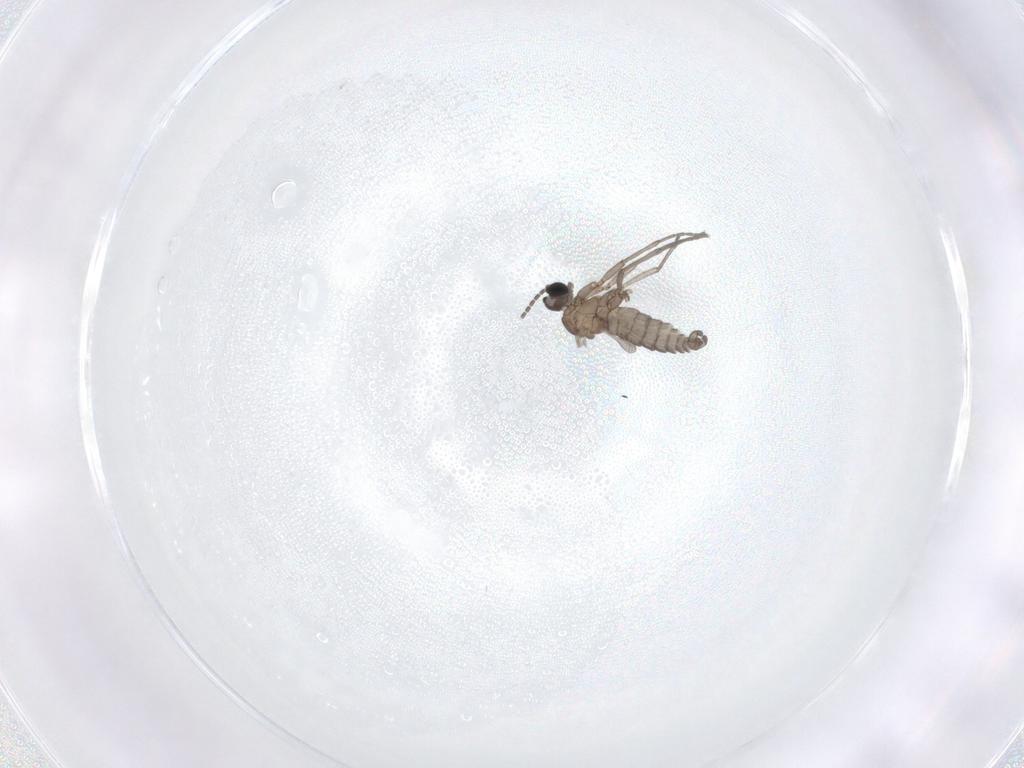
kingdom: Animalia
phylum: Arthropoda
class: Insecta
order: Diptera
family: Sciaridae
